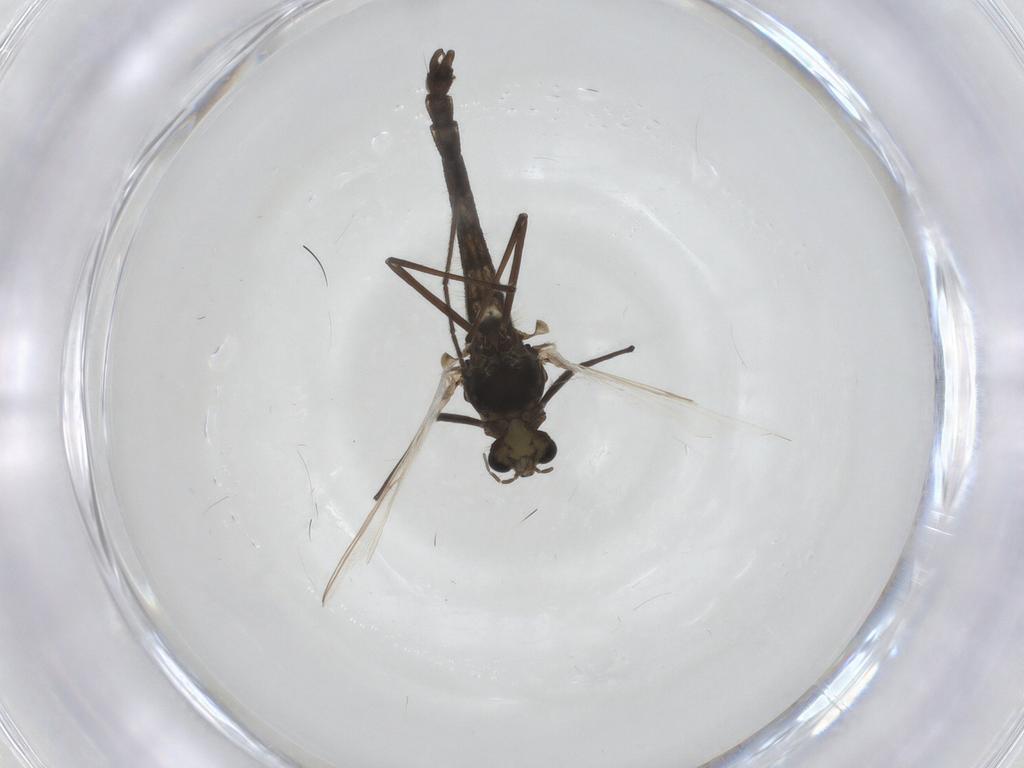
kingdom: Animalia
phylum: Arthropoda
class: Insecta
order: Diptera
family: Chironomidae
